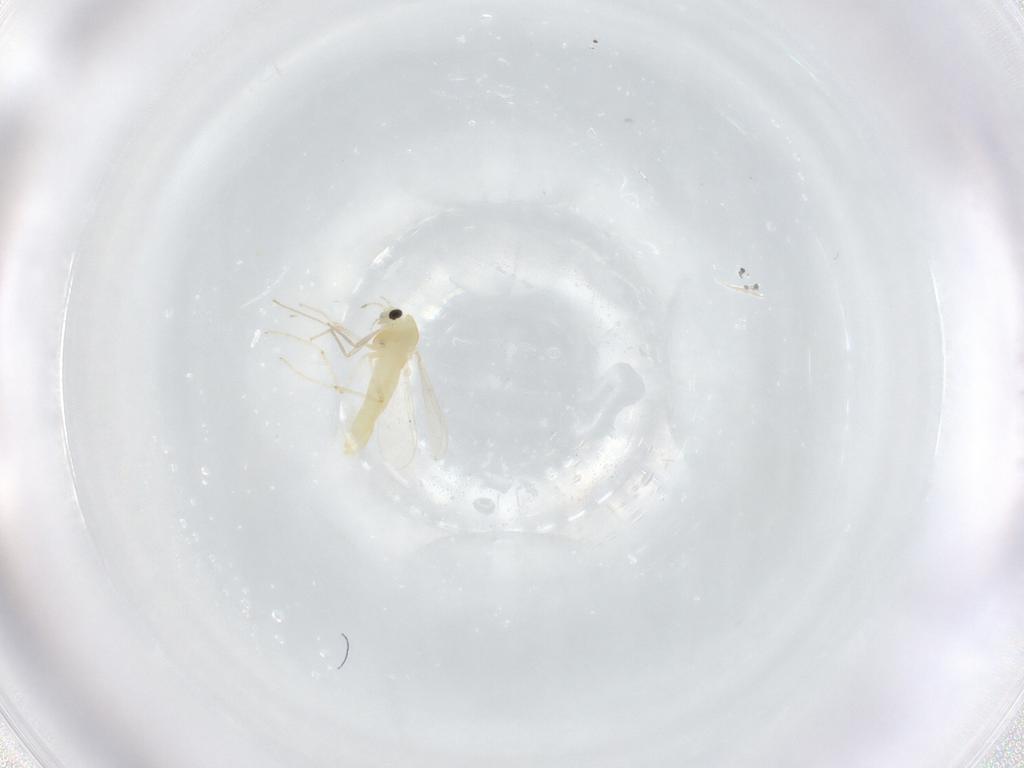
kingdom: Animalia
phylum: Arthropoda
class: Insecta
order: Diptera
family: Chironomidae
